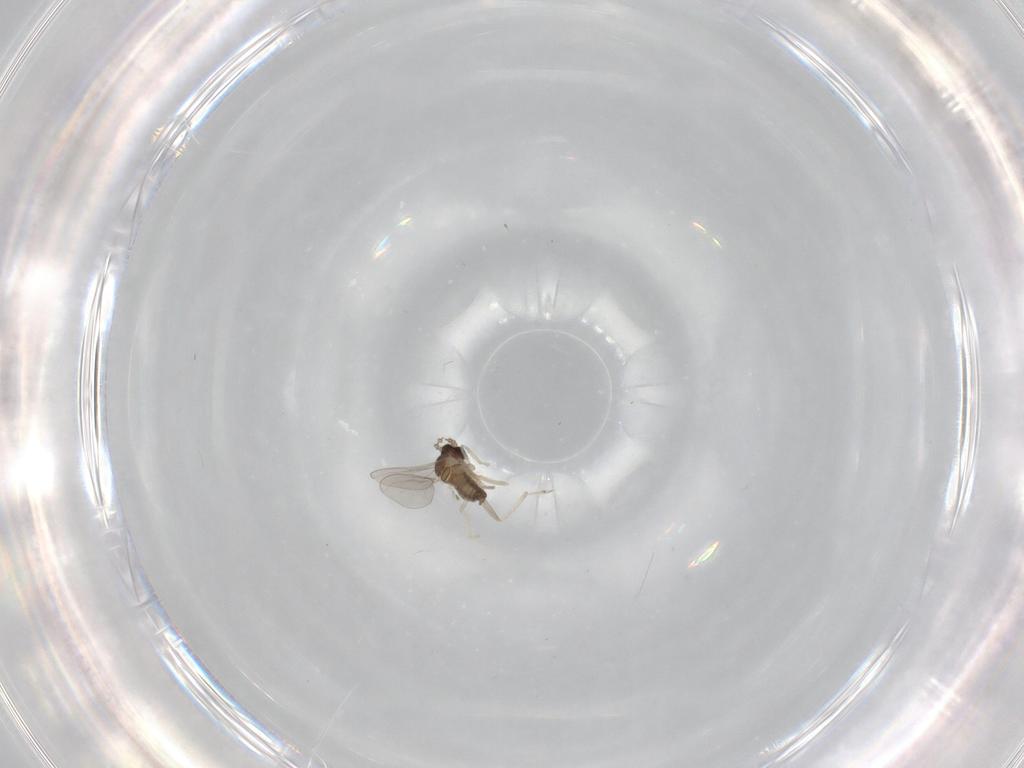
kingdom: Animalia
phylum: Arthropoda
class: Insecta
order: Diptera
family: Cecidomyiidae
